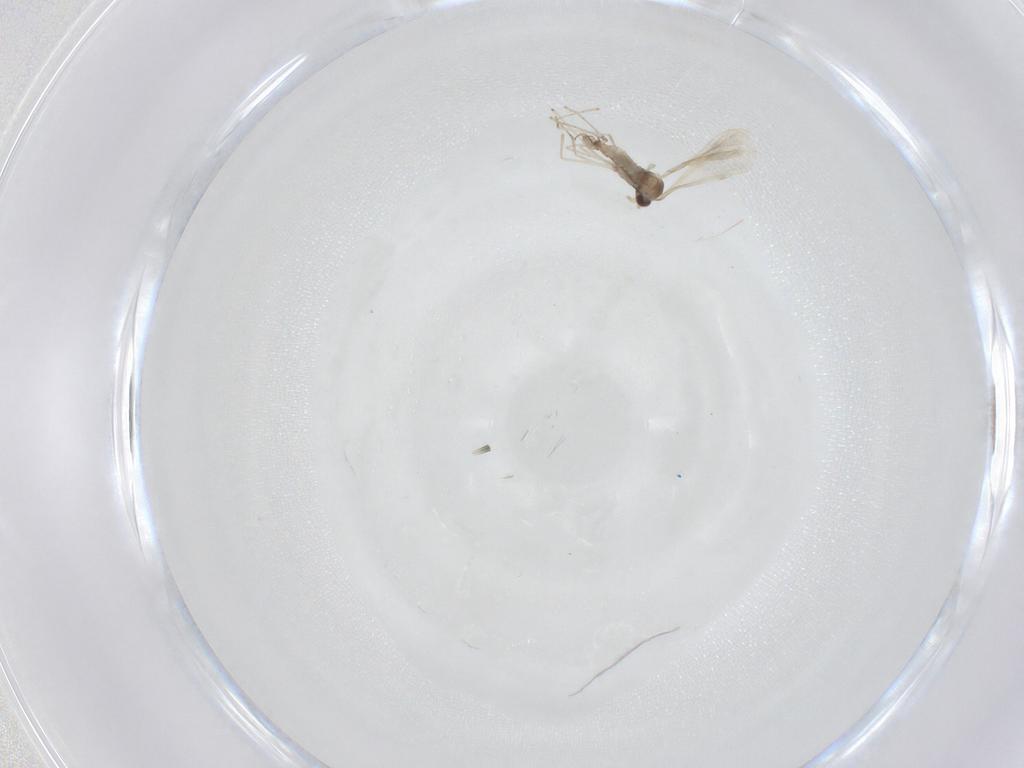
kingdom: Animalia
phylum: Arthropoda
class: Insecta
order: Diptera
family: Cecidomyiidae
